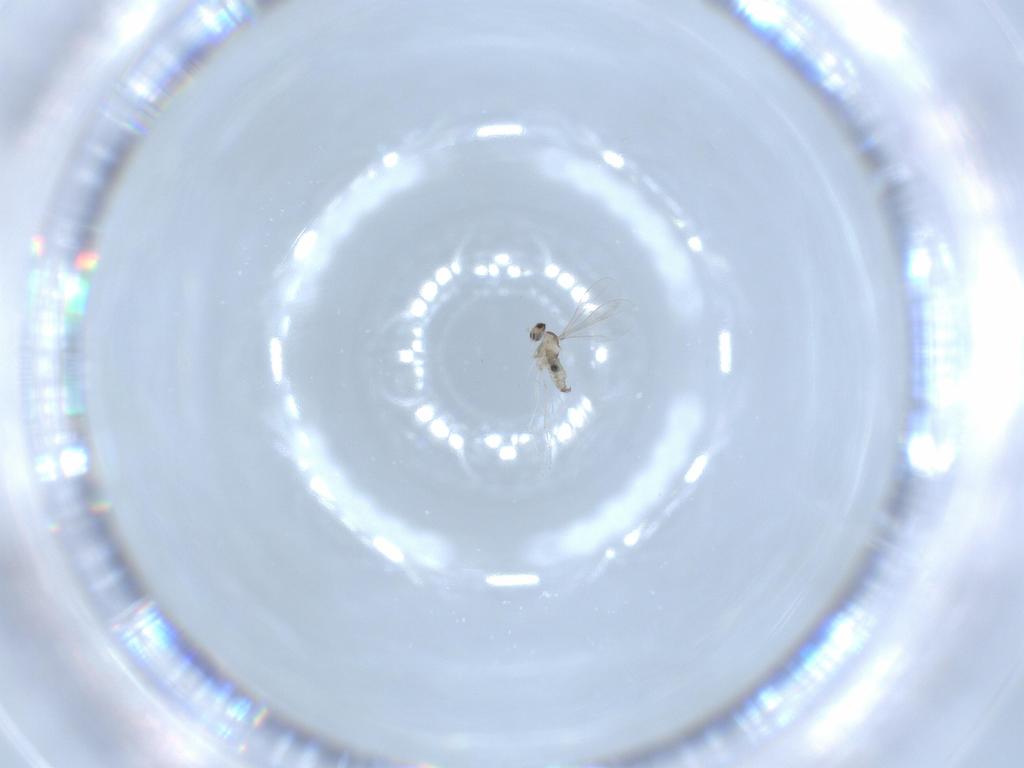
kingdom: Animalia
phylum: Arthropoda
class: Insecta
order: Diptera
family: Cecidomyiidae
